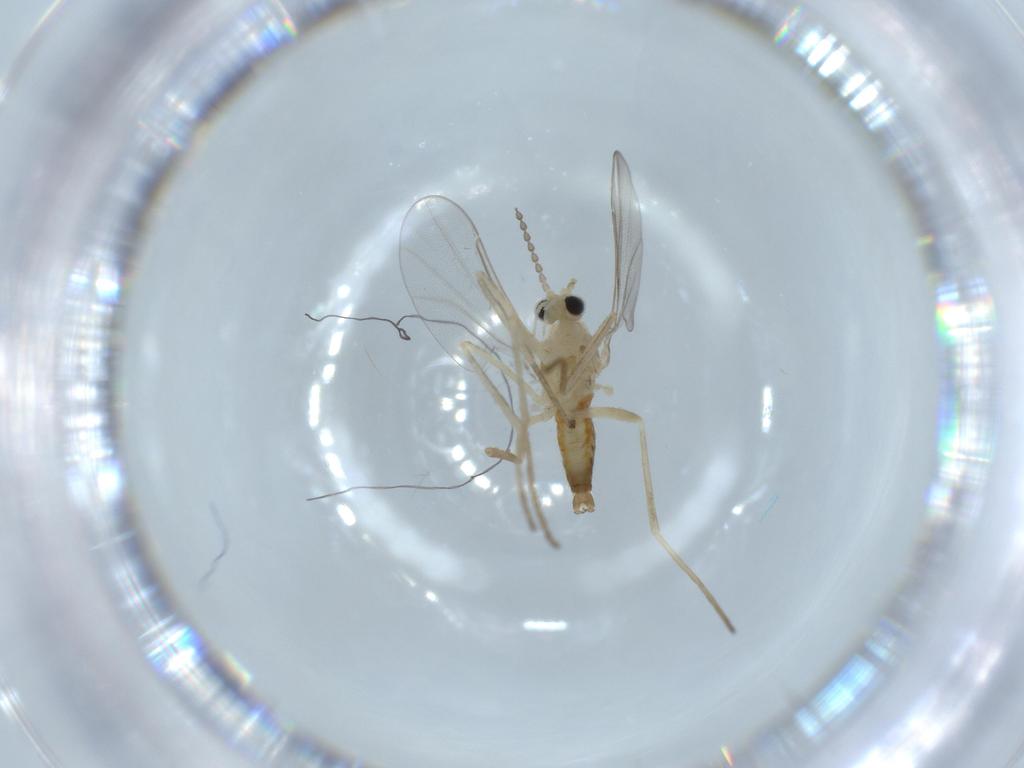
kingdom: Animalia
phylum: Arthropoda
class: Insecta
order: Diptera
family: Cecidomyiidae
